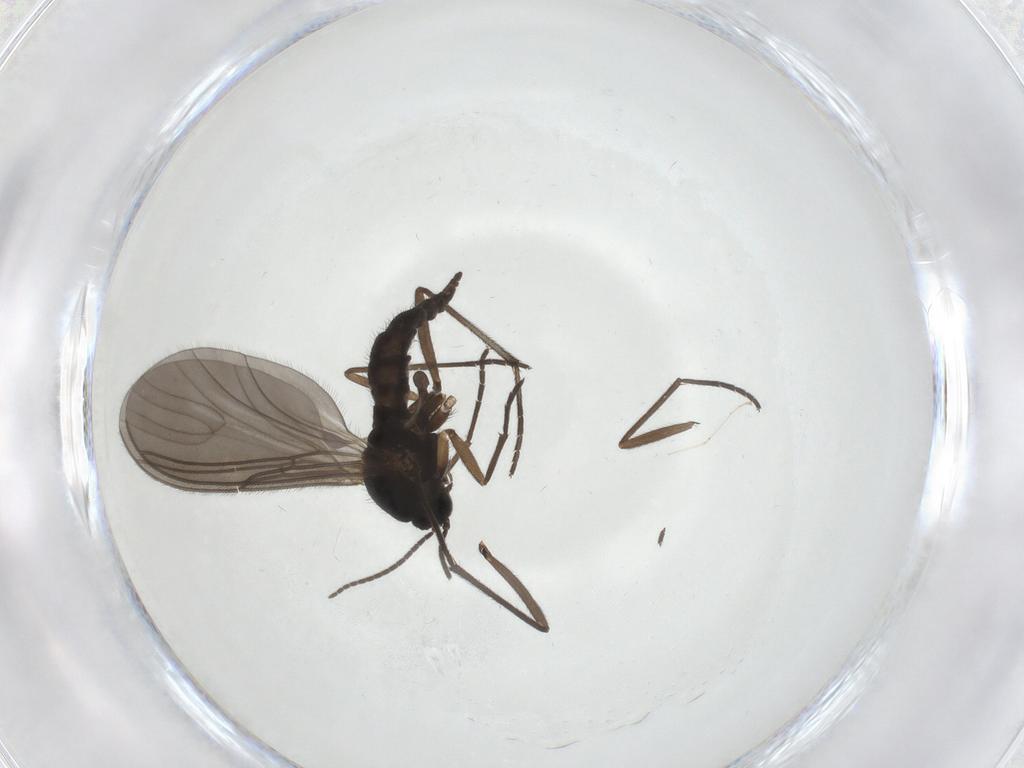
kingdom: Animalia
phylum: Arthropoda
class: Insecta
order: Diptera
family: Sciaridae
